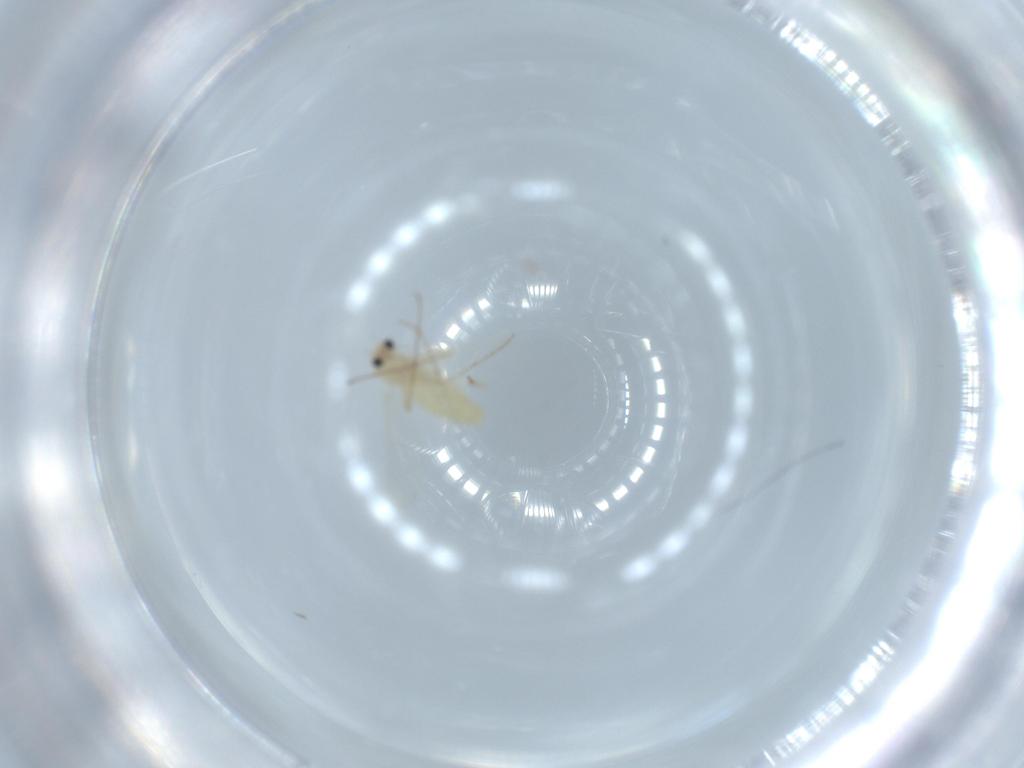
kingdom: Animalia
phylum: Arthropoda
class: Insecta
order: Diptera
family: Chironomidae
